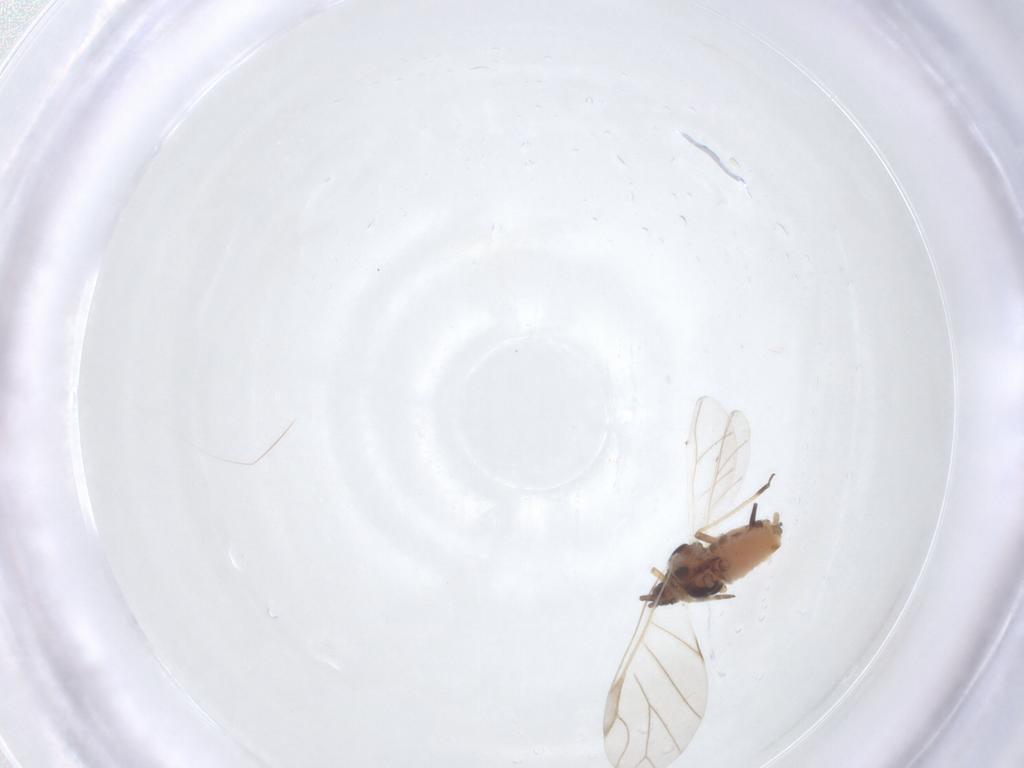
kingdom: Animalia
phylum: Arthropoda
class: Insecta
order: Hemiptera
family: Aphididae
